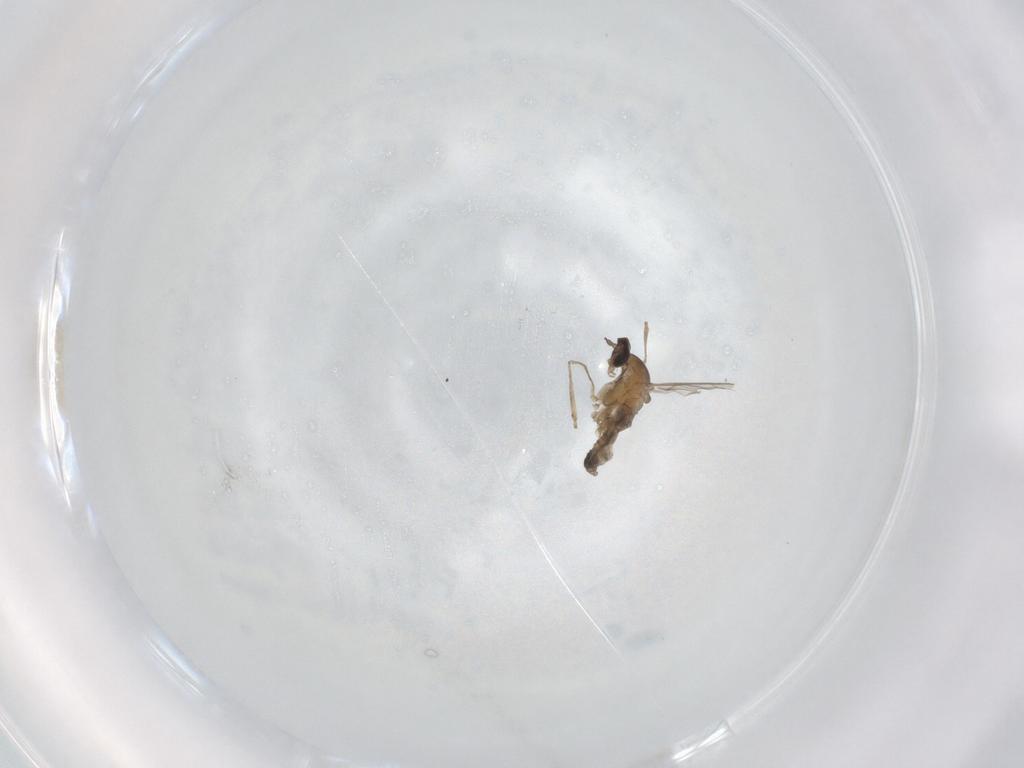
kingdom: Animalia
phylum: Arthropoda
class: Insecta
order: Diptera
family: Cecidomyiidae
